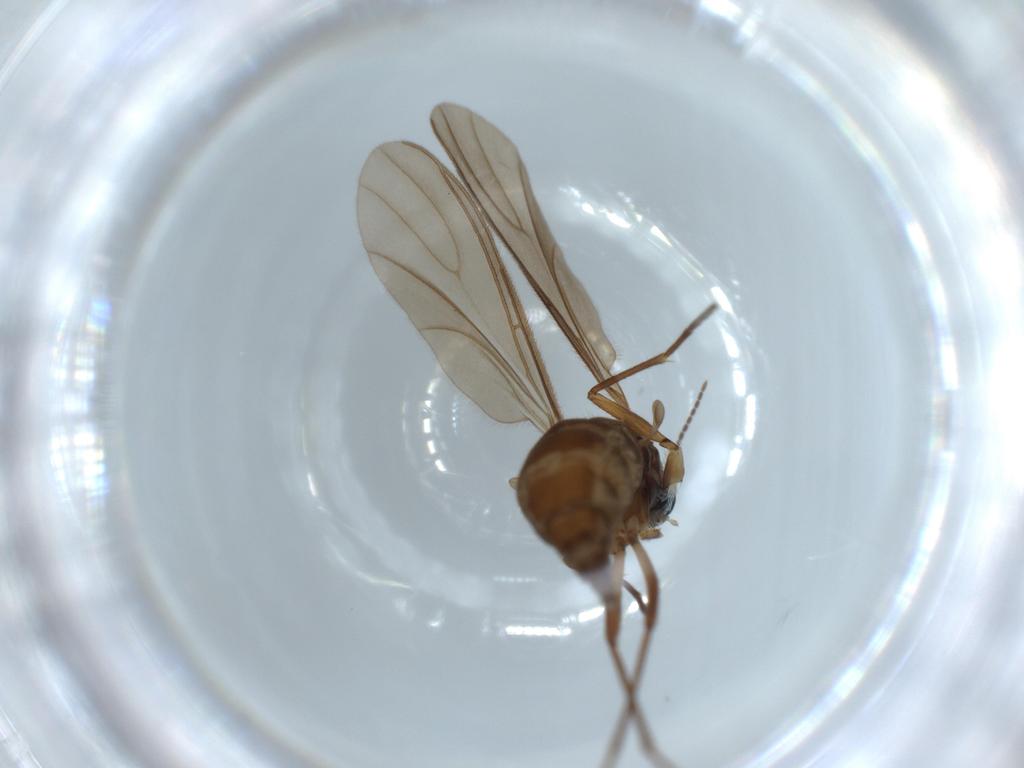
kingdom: Animalia
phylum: Arthropoda
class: Insecta
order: Diptera
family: Sciaridae
